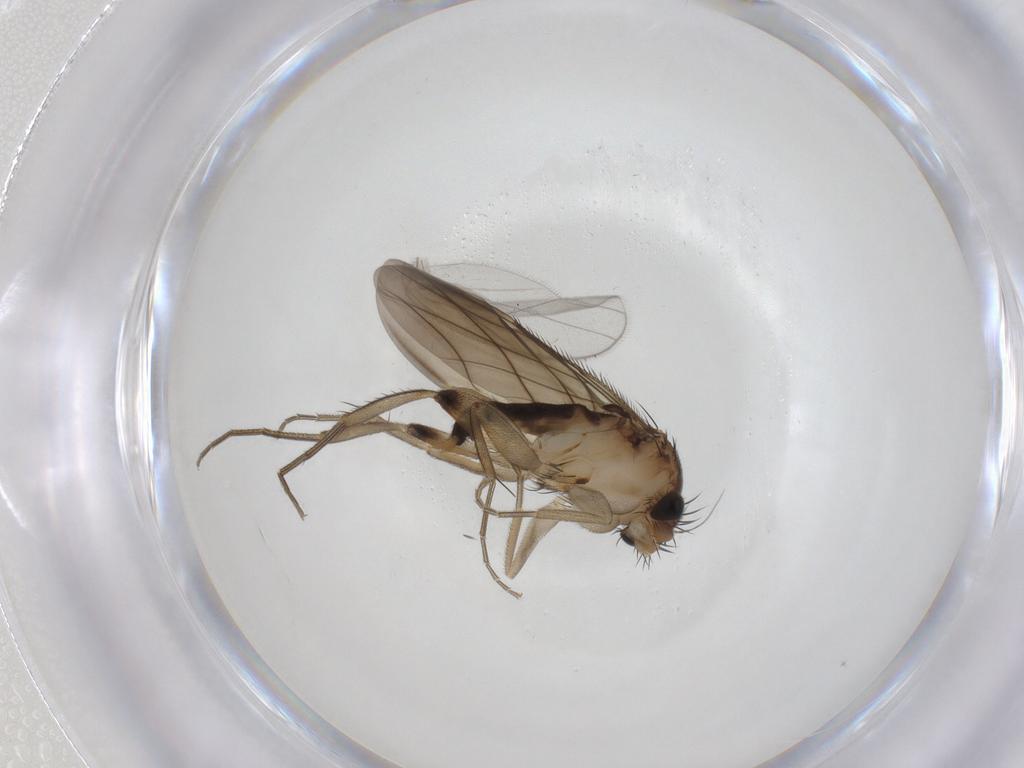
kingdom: Animalia
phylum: Arthropoda
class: Insecta
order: Diptera
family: Phoridae
